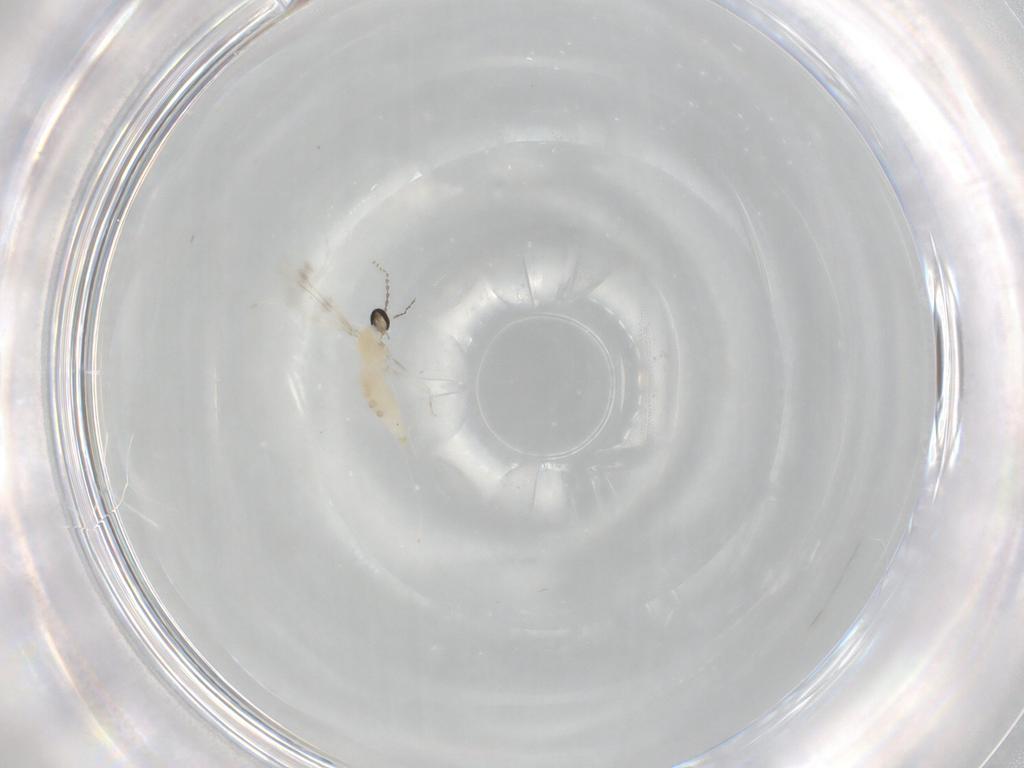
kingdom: Animalia
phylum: Arthropoda
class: Insecta
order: Diptera
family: Cecidomyiidae
